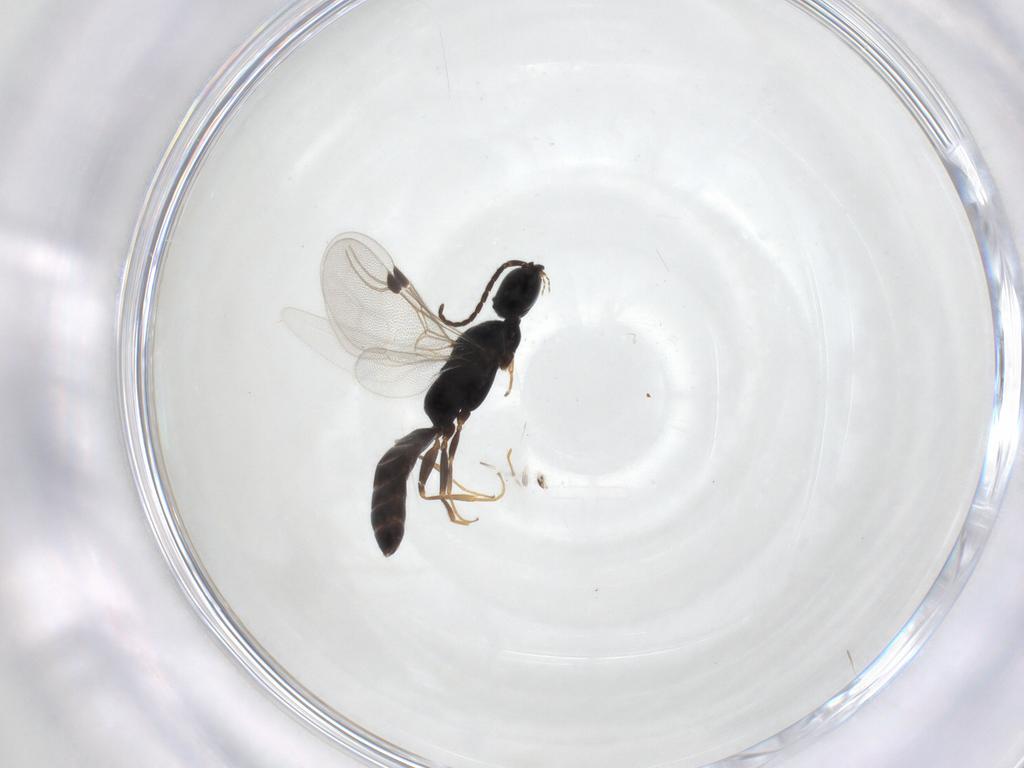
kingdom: Animalia
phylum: Arthropoda
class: Insecta
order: Hymenoptera
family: Bethylidae
